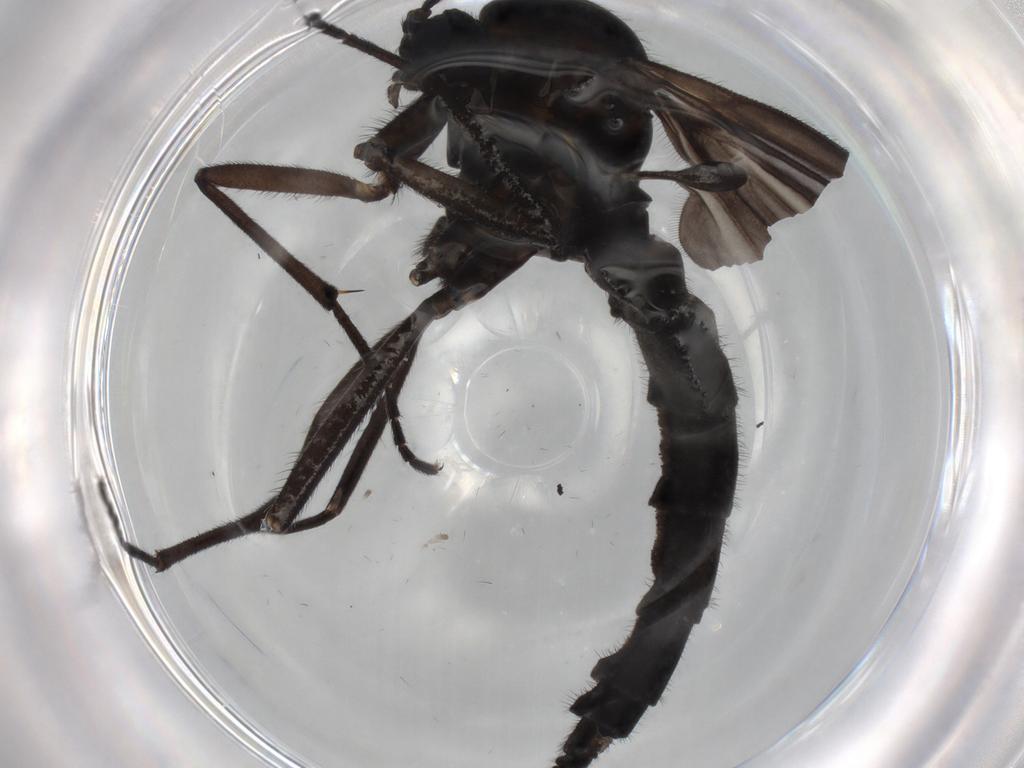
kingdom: Animalia
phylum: Arthropoda
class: Insecta
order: Diptera
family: Sciaridae
